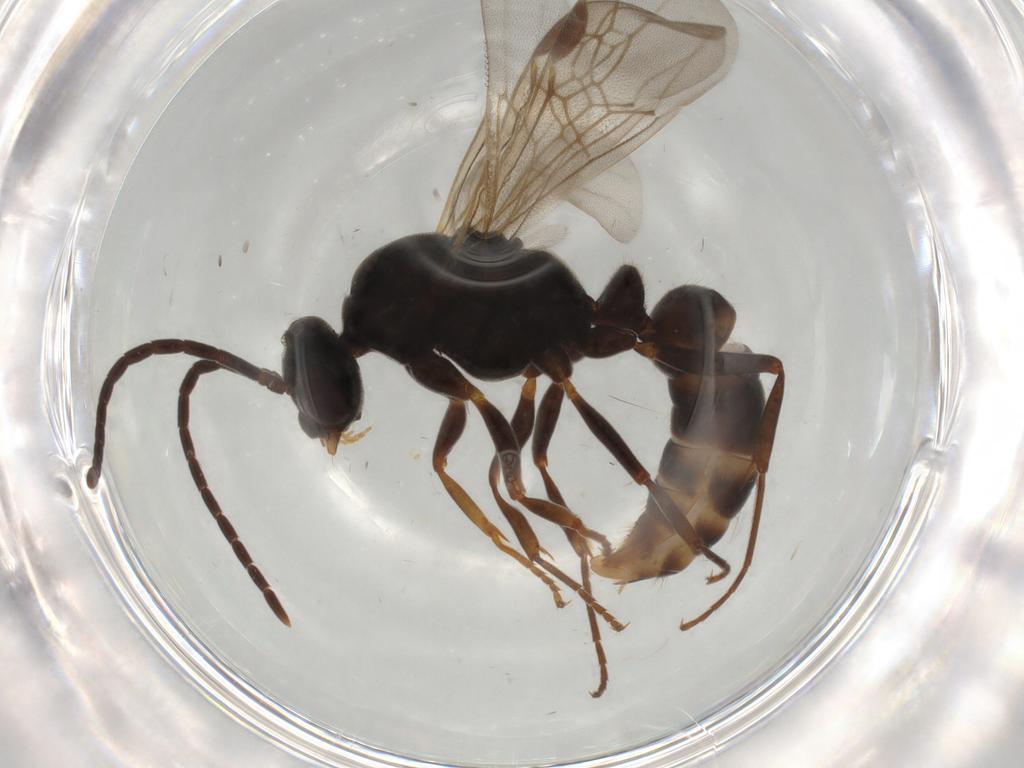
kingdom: Animalia
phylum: Arthropoda
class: Insecta
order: Hymenoptera
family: Formicidae
